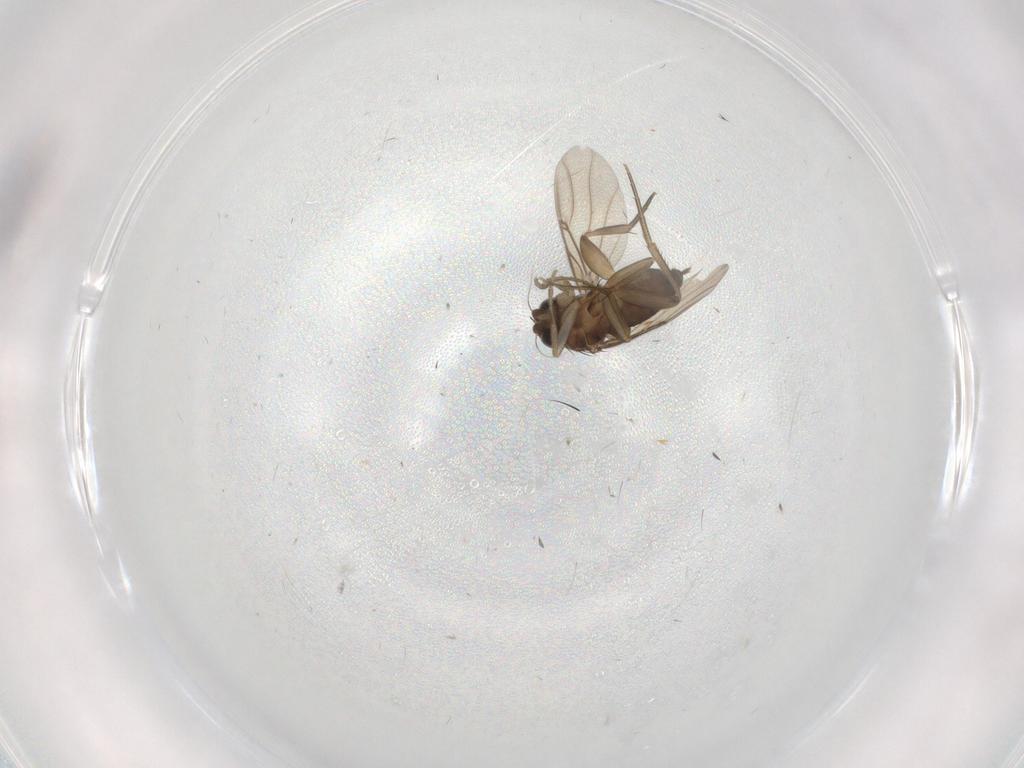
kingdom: Animalia
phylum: Arthropoda
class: Insecta
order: Diptera
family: Phoridae
